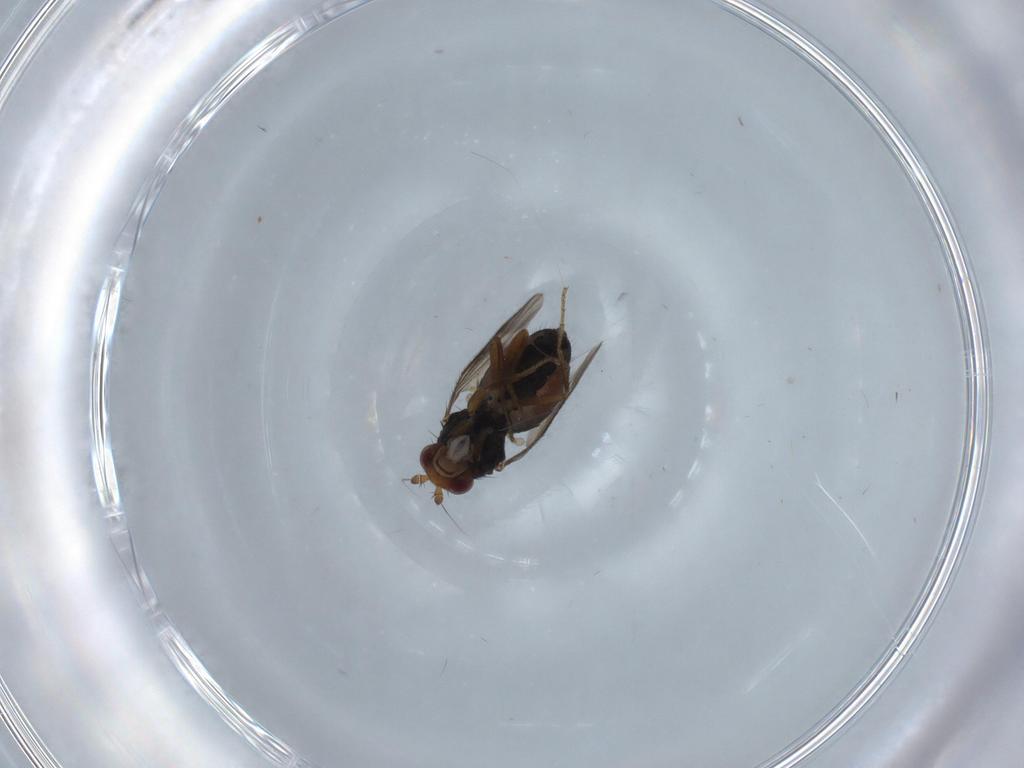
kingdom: Animalia
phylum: Arthropoda
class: Insecta
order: Diptera
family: Sphaeroceridae
